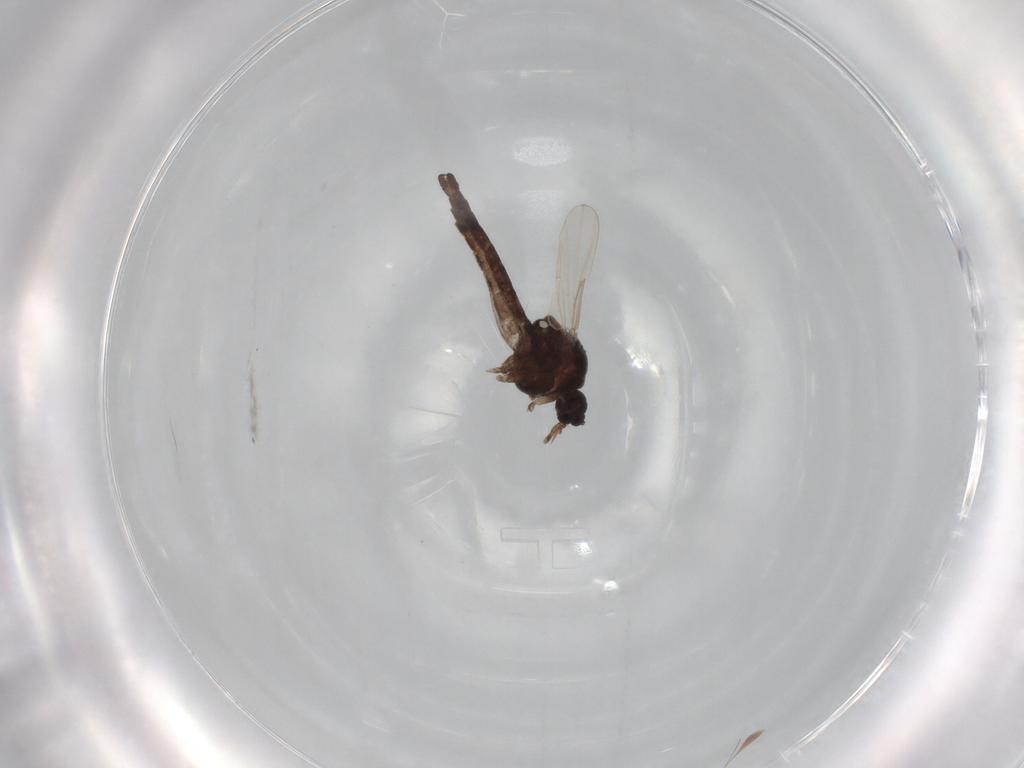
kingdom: Animalia
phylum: Arthropoda
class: Insecta
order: Diptera
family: Ceratopogonidae
